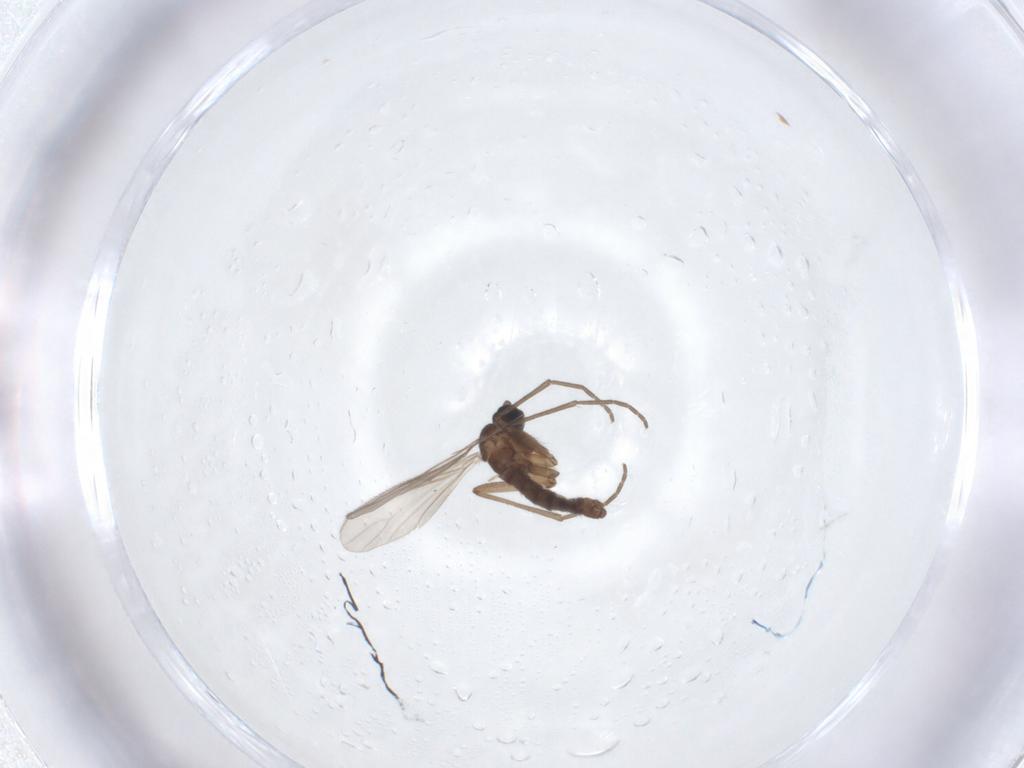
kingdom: Animalia
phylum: Arthropoda
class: Insecta
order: Diptera
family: Sciaridae
